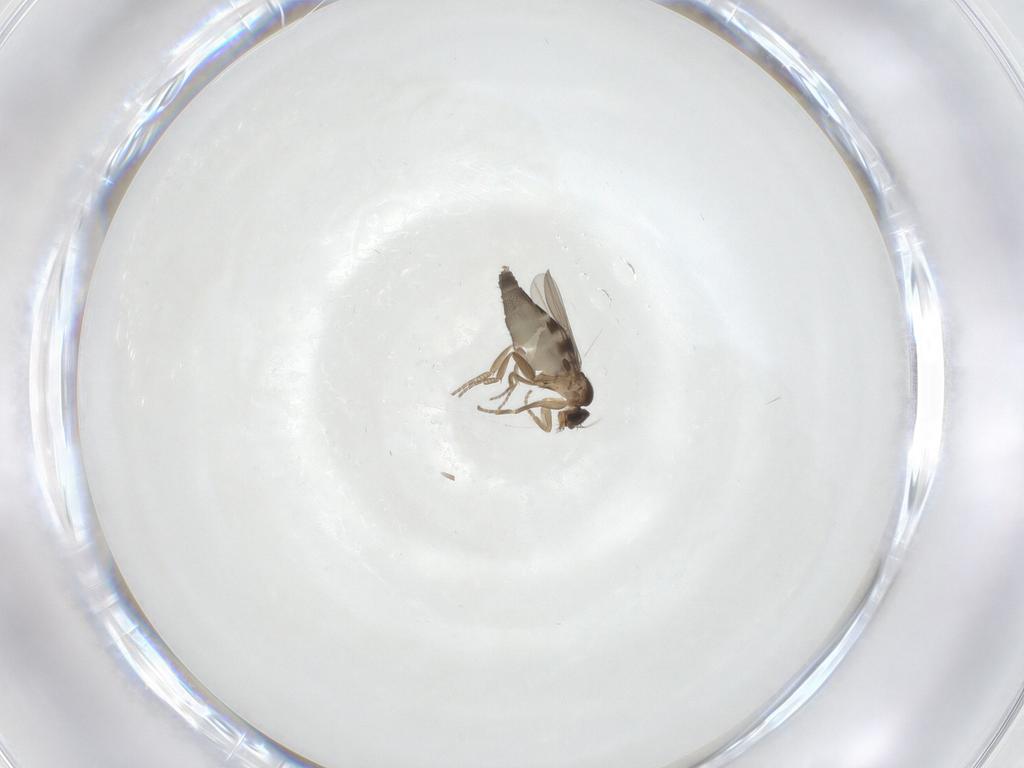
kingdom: Animalia
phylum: Arthropoda
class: Insecta
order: Diptera
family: Phoridae
